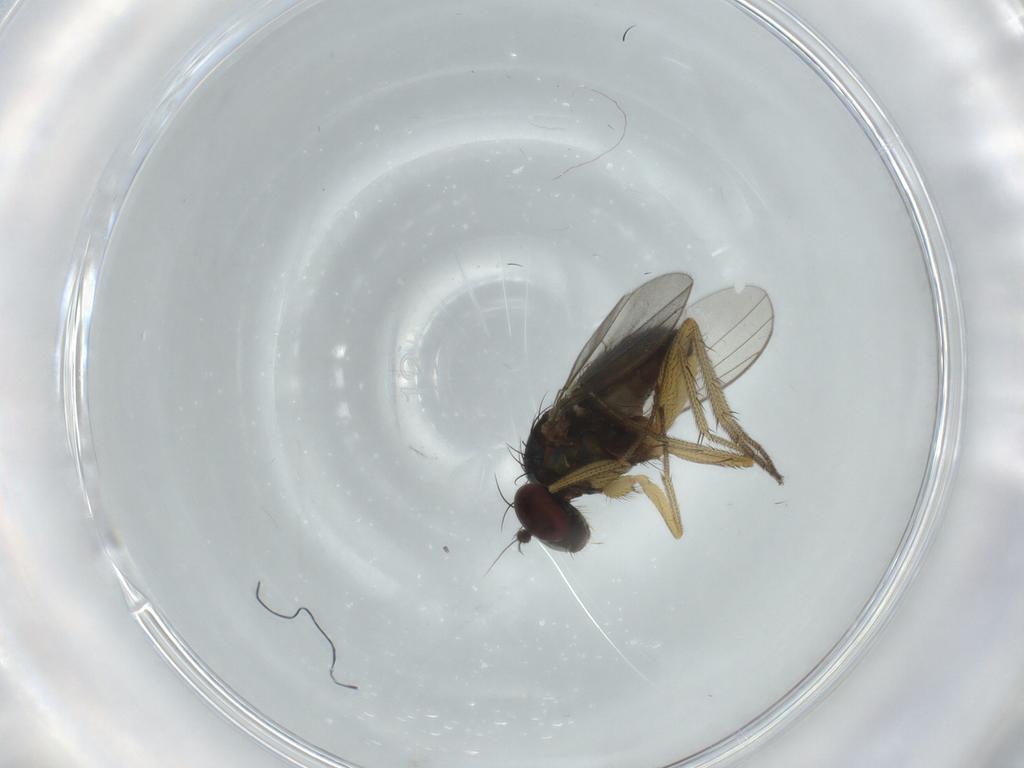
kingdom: Animalia
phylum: Arthropoda
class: Insecta
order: Diptera
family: Dolichopodidae
